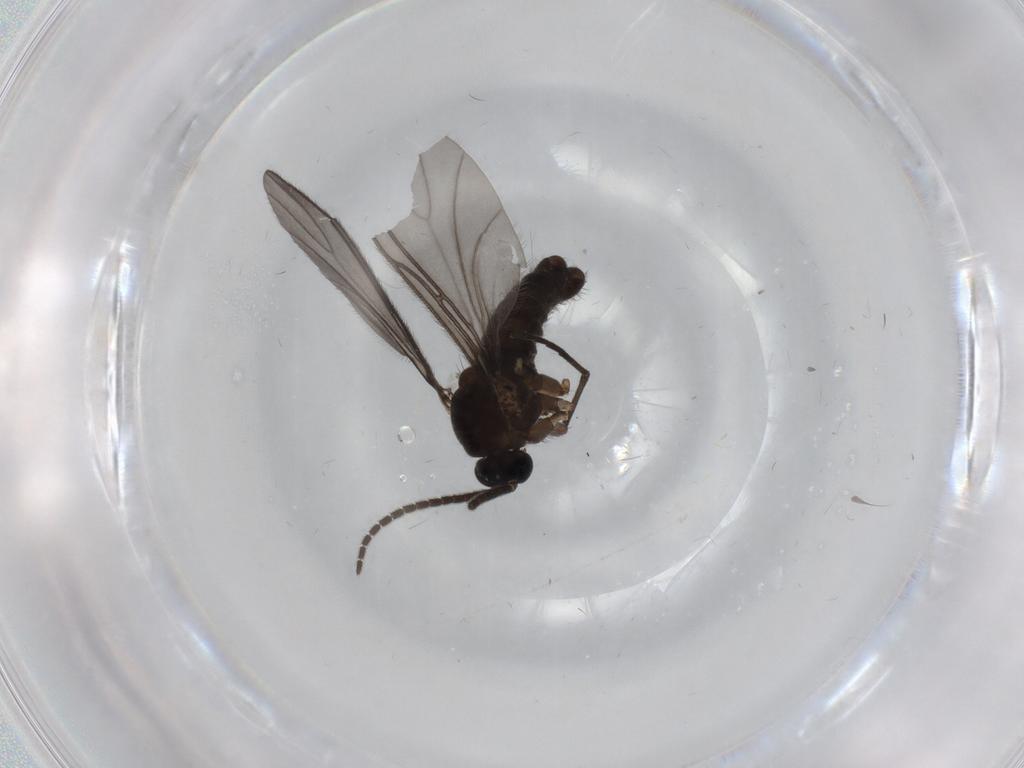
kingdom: Animalia
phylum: Arthropoda
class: Insecta
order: Diptera
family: Sciaridae
